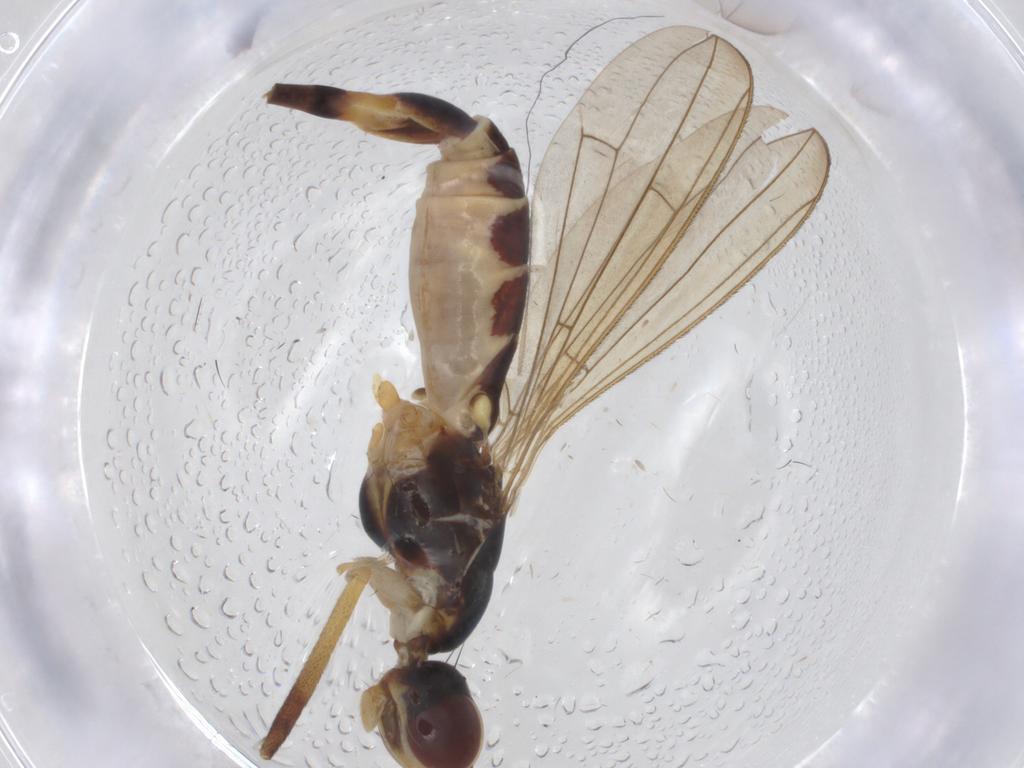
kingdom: Animalia
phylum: Arthropoda
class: Insecta
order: Diptera
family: Micropezidae
